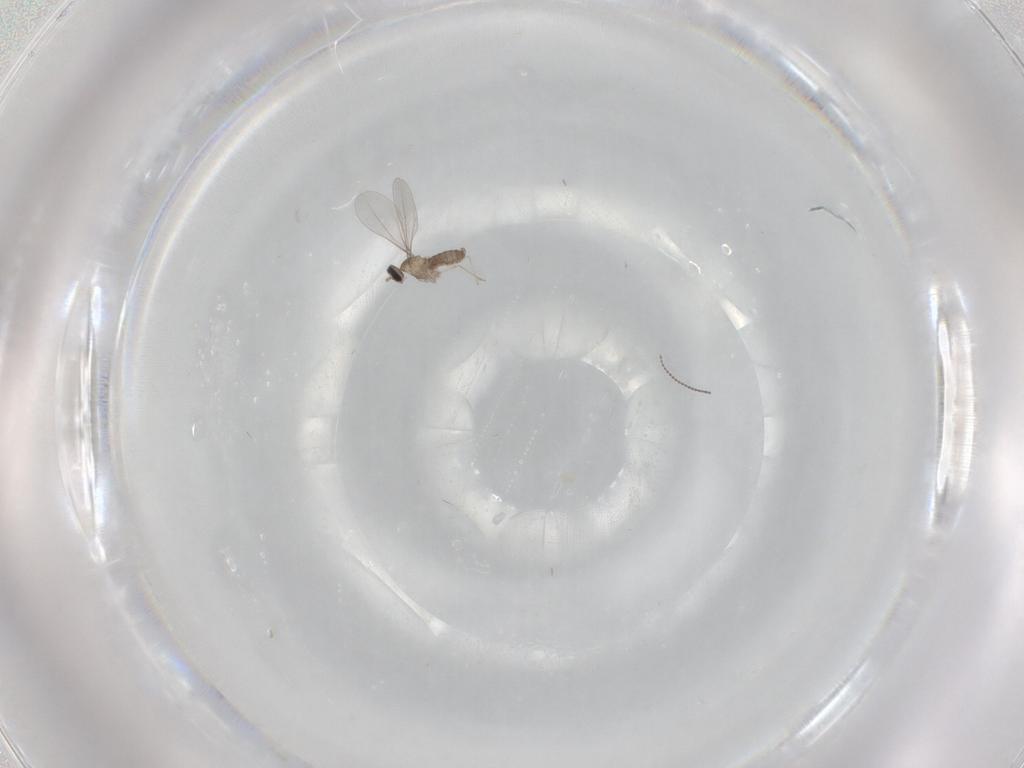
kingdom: Animalia
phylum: Arthropoda
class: Insecta
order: Diptera
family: Cecidomyiidae
